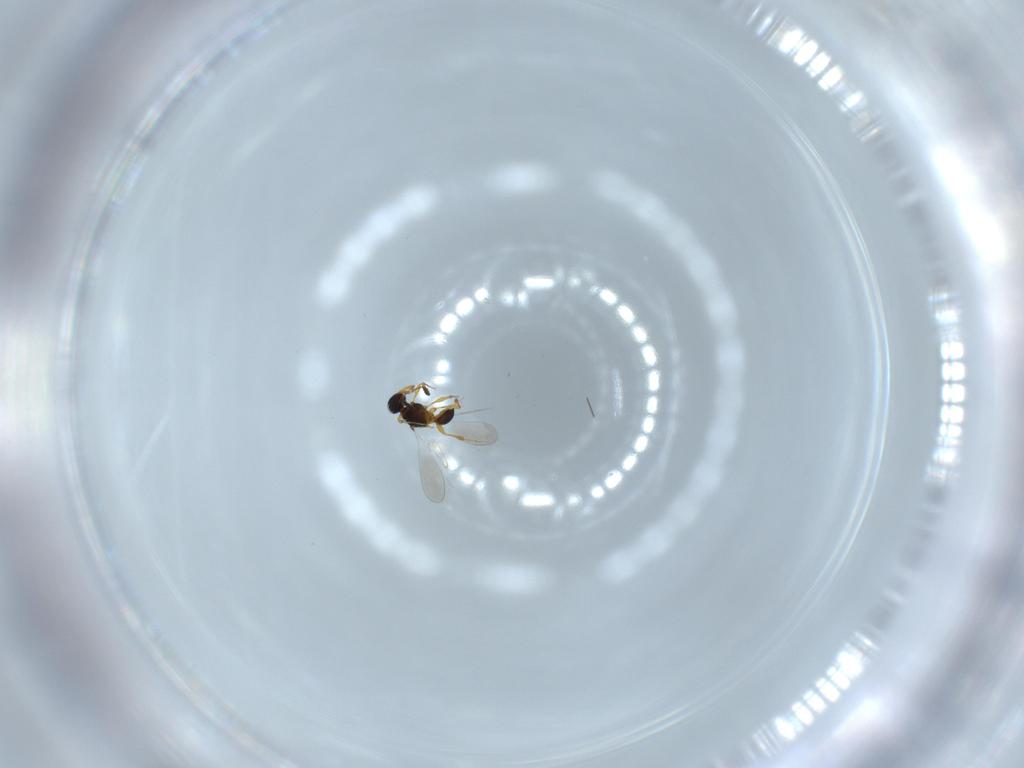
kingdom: Animalia
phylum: Arthropoda
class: Insecta
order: Hymenoptera
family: Platygastridae
